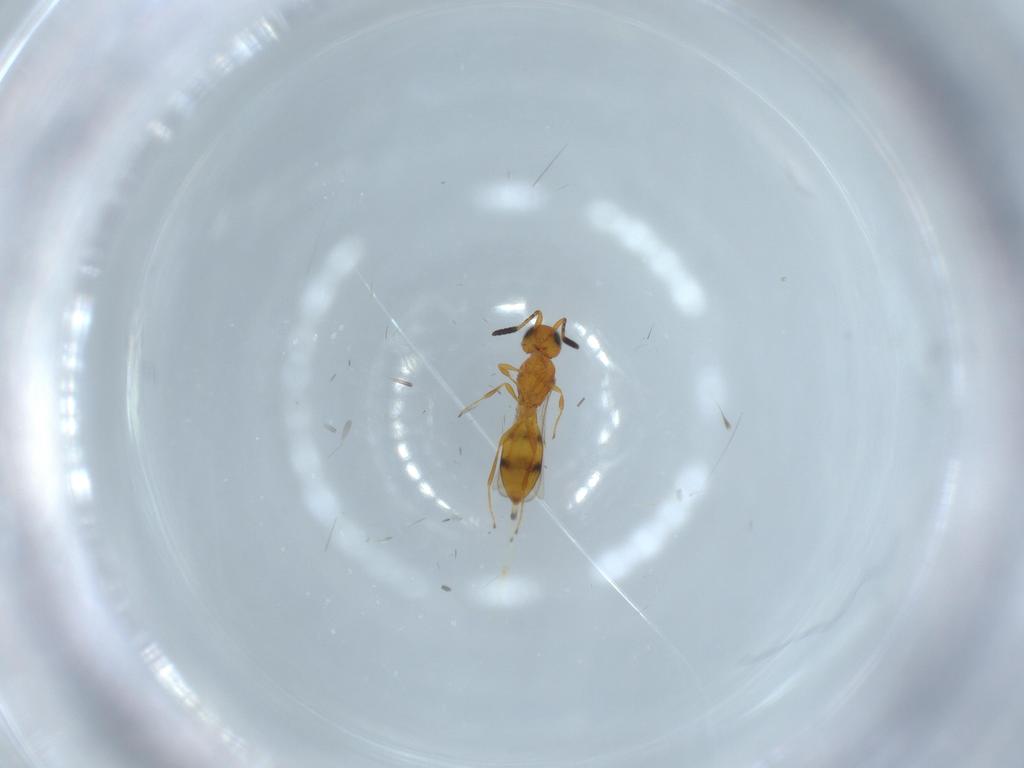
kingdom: Animalia
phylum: Arthropoda
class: Insecta
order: Hymenoptera
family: Scelionidae
